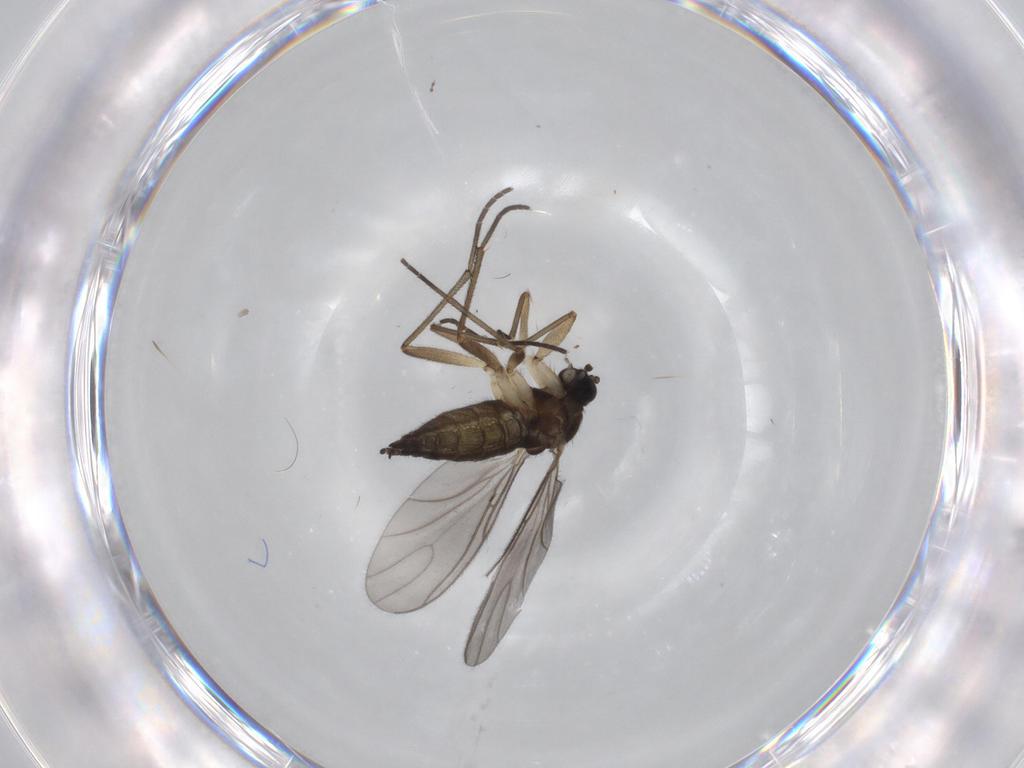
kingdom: Animalia
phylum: Arthropoda
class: Insecta
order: Diptera
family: Sciaridae
